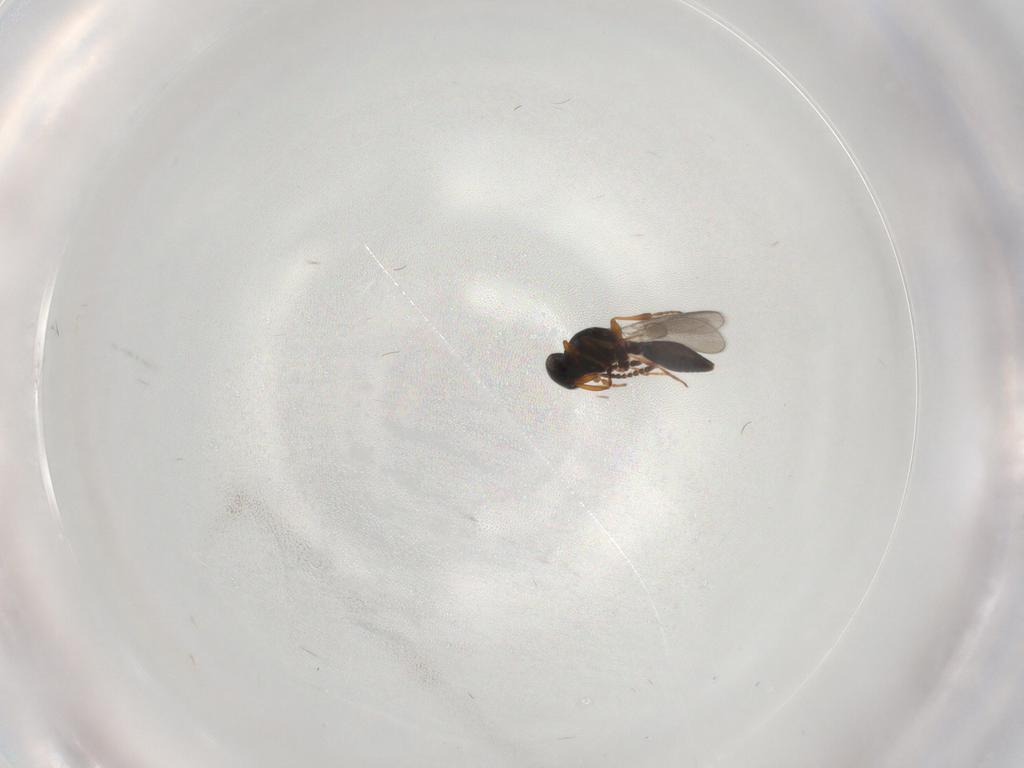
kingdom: Animalia
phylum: Arthropoda
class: Insecta
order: Hymenoptera
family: Platygastridae
